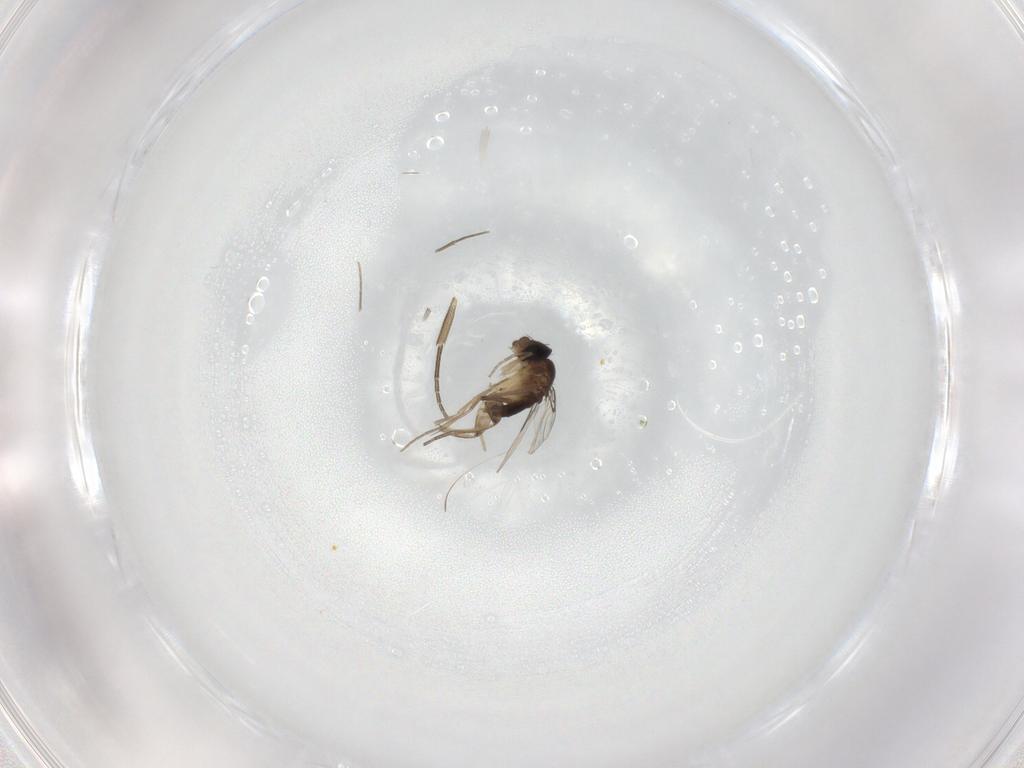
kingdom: Animalia
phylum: Arthropoda
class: Insecta
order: Diptera
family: Phoridae
